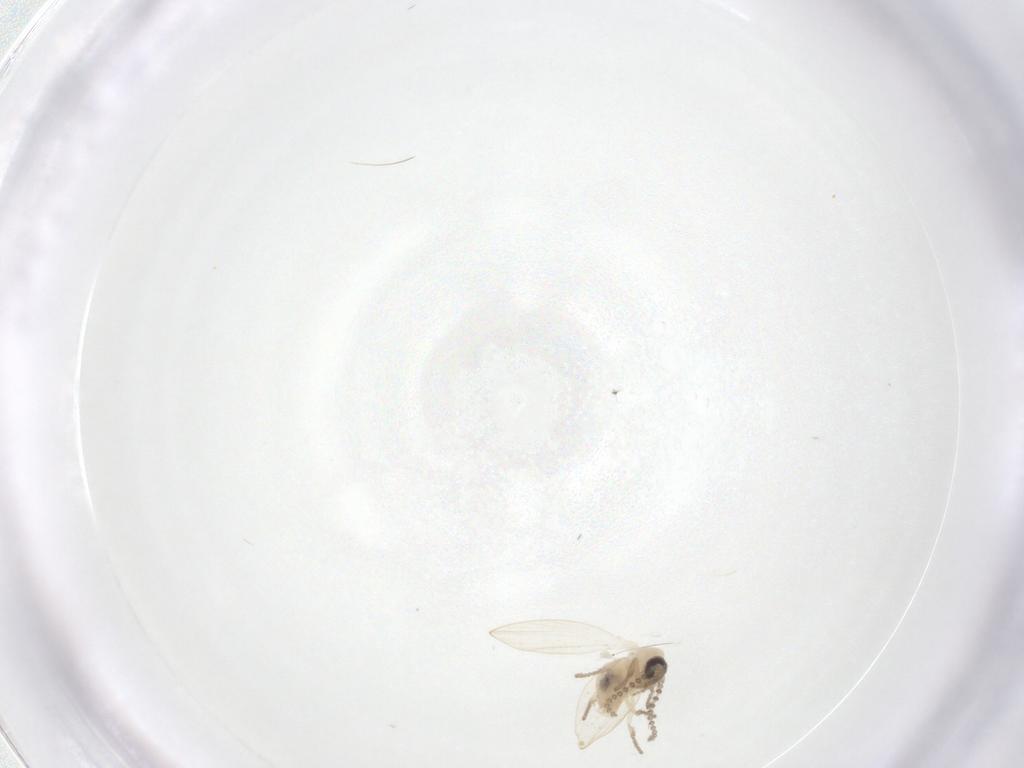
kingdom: Animalia
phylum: Arthropoda
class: Insecta
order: Diptera
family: Psychodidae
